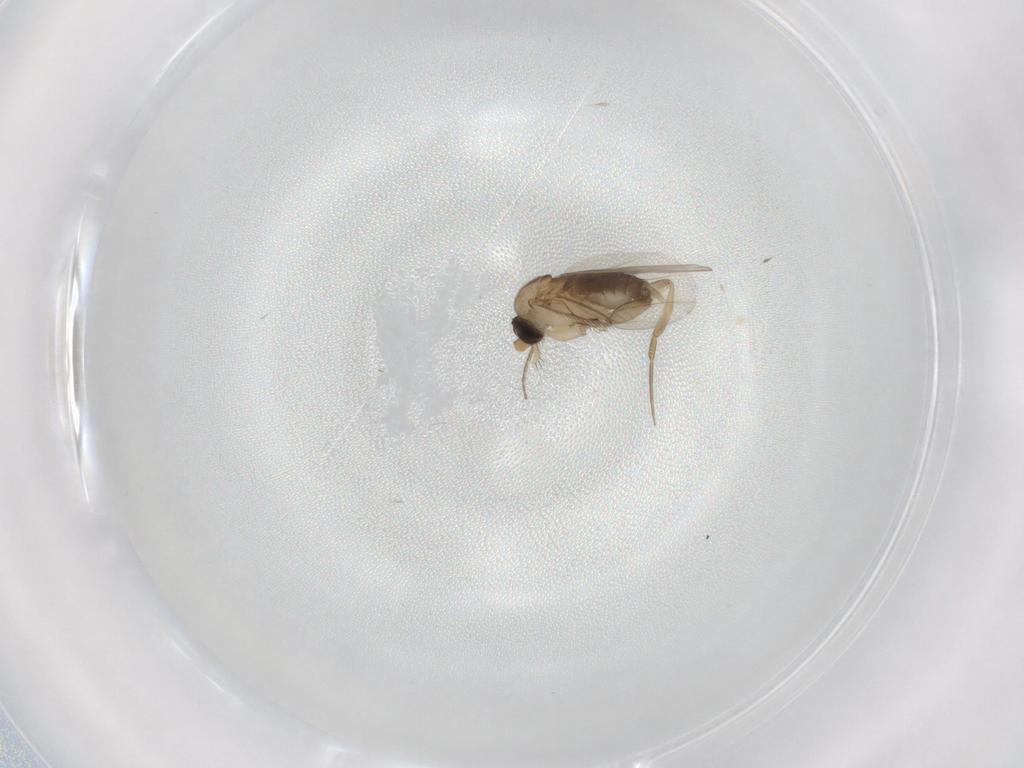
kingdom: Animalia
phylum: Arthropoda
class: Insecta
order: Diptera
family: Phoridae
